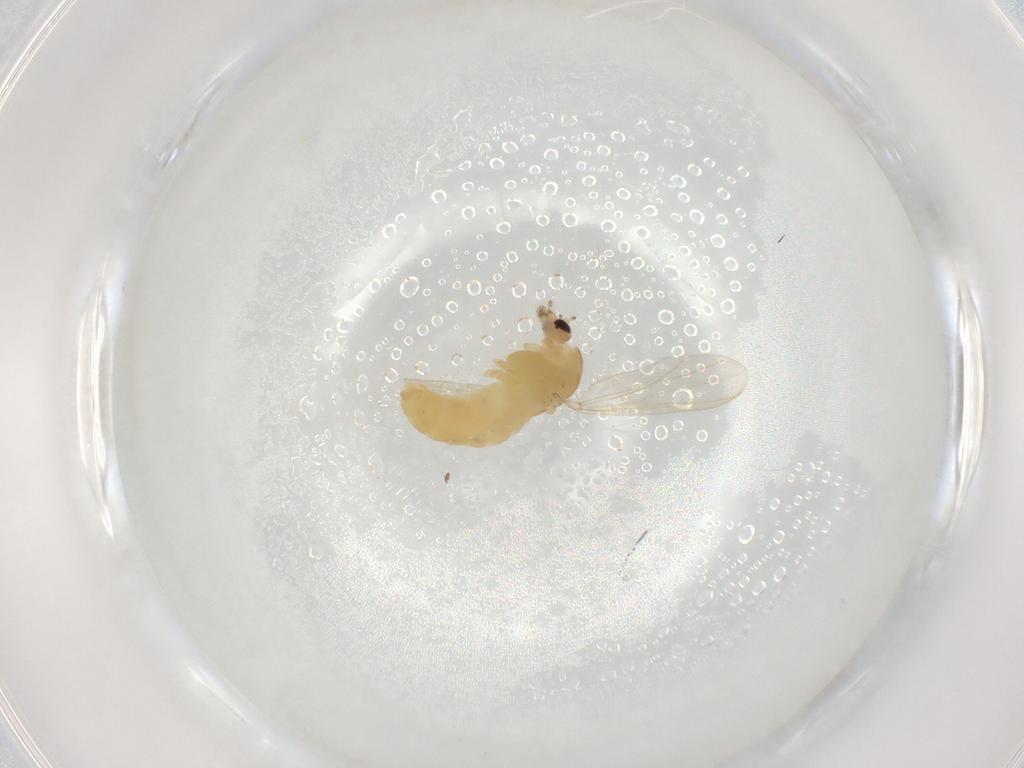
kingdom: Animalia
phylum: Arthropoda
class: Insecta
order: Diptera
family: Chironomidae
